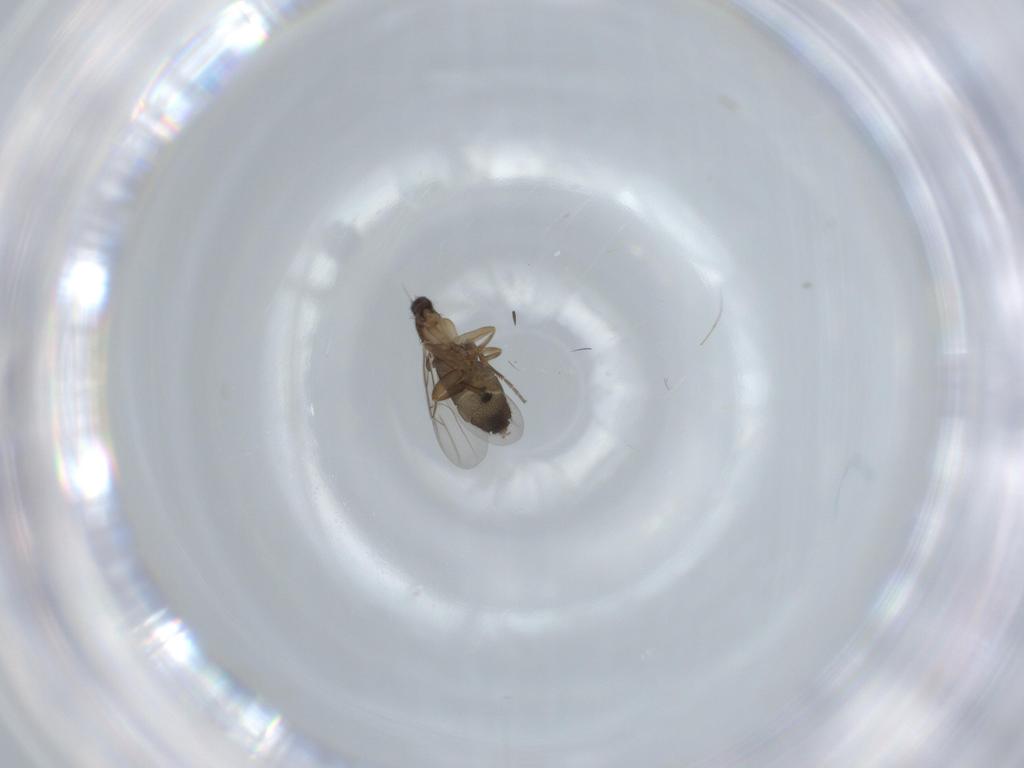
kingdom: Animalia
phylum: Arthropoda
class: Insecta
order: Diptera
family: Phoridae
